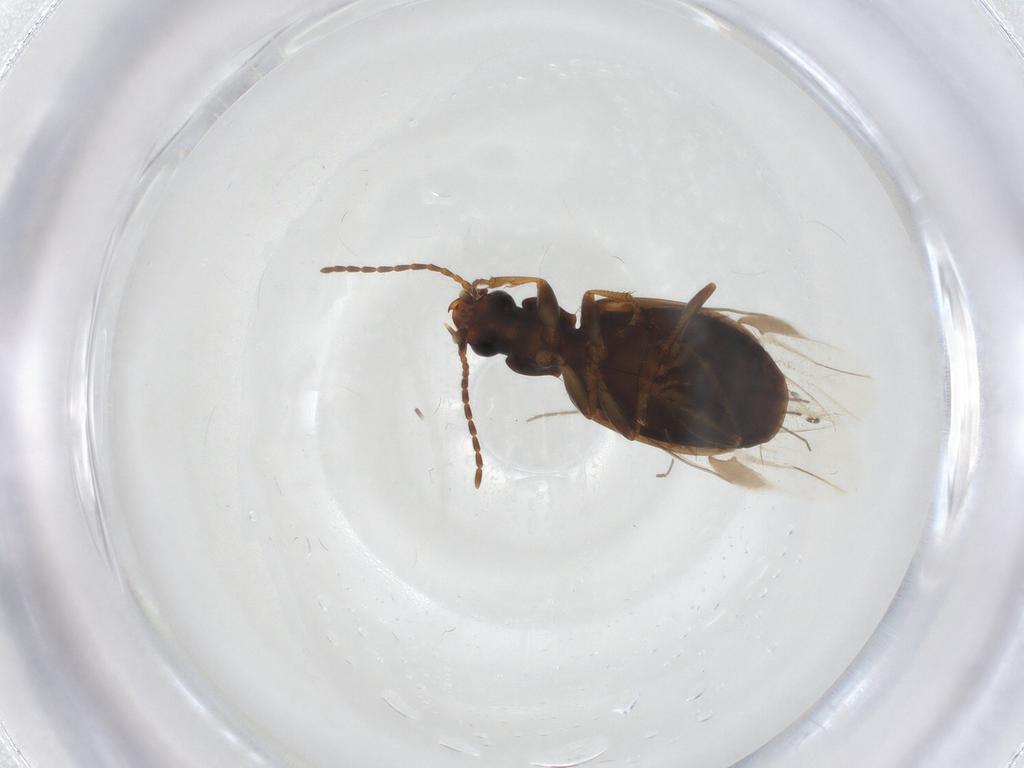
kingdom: Animalia
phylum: Arthropoda
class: Insecta
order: Coleoptera
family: Carabidae
